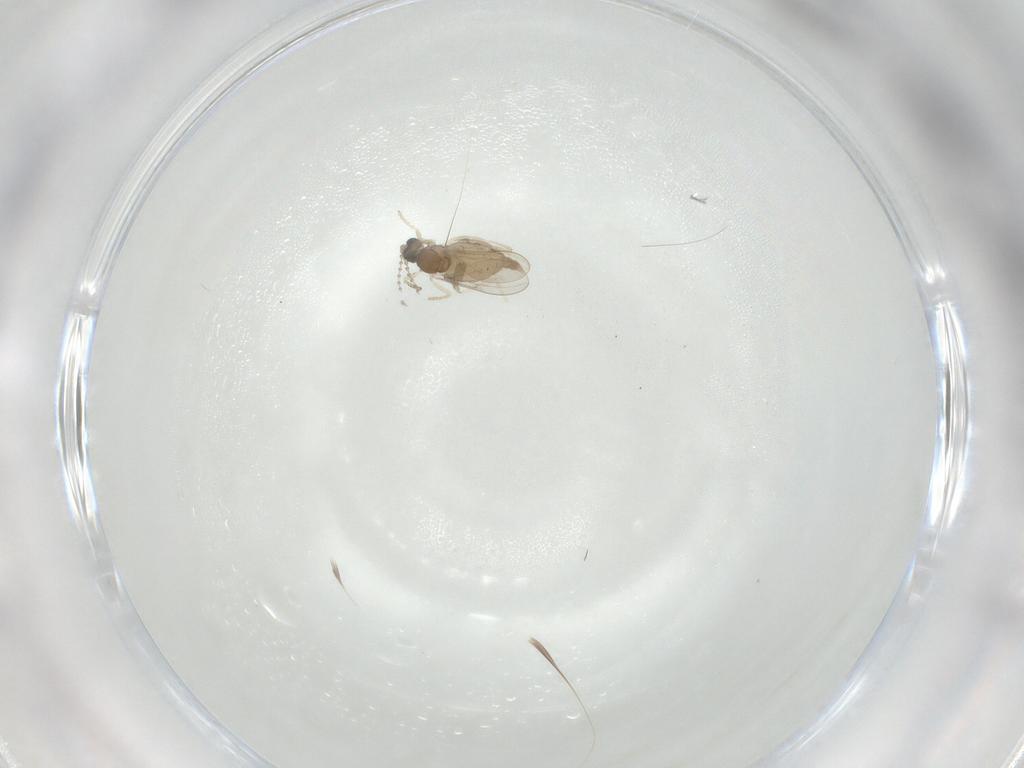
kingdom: Animalia
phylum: Arthropoda
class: Insecta
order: Diptera
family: Cecidomyiidae
